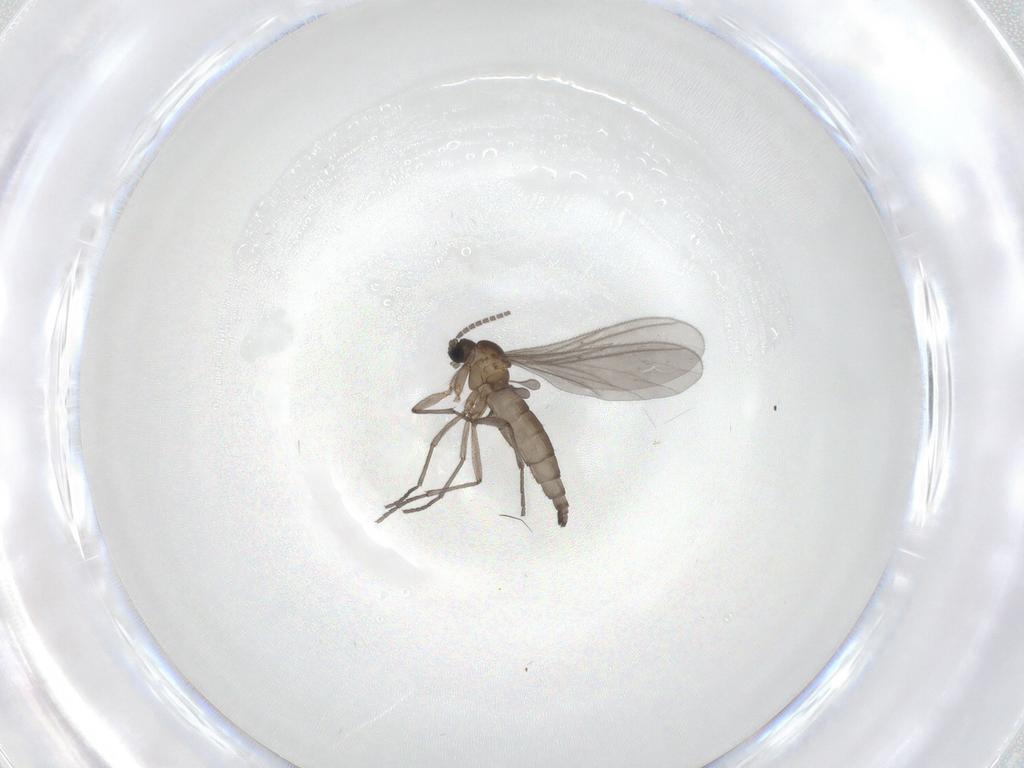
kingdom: Animalia
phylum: Arthropoda
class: Insecta
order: Diptera
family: Sciaridae
